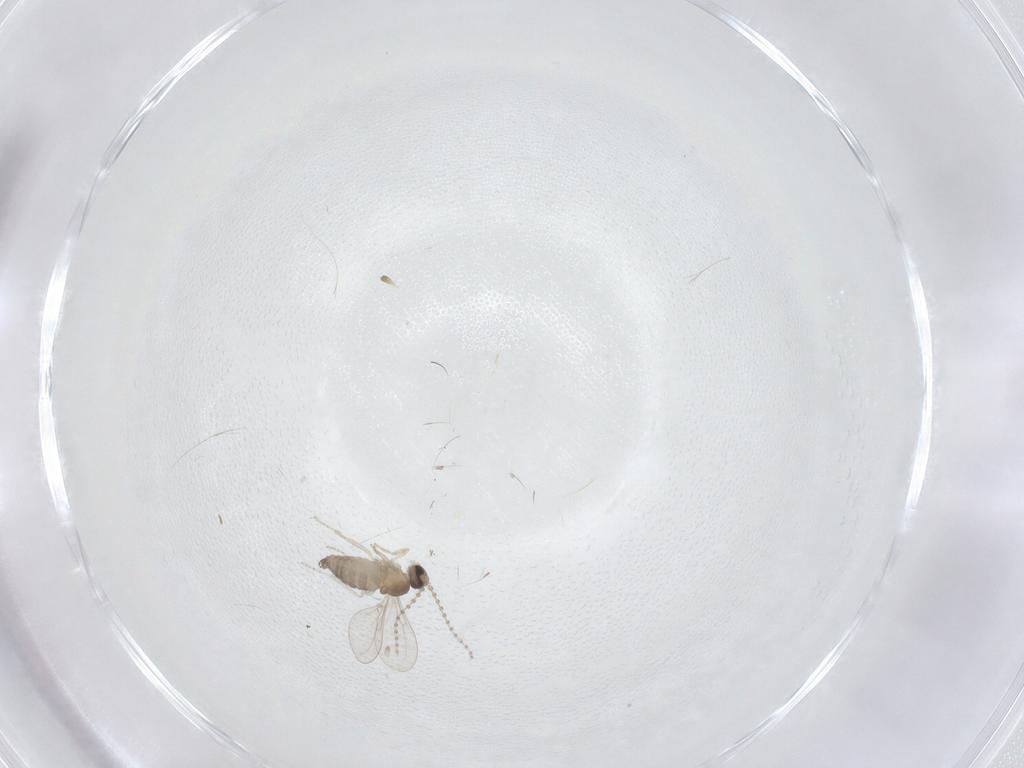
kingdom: Animalia
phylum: Arthropoda
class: Insecta
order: Diptera
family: Cecidomyiidae
